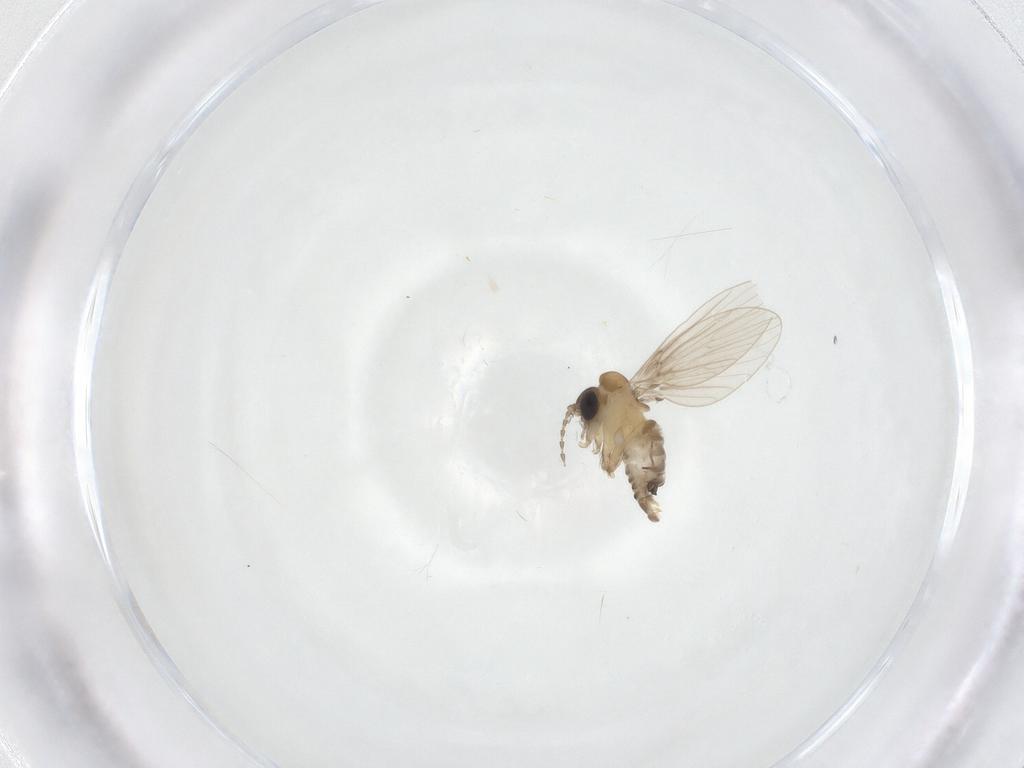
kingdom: Animalia
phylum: Arthropoda
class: Insecta
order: Diptera
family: Psychodidae
